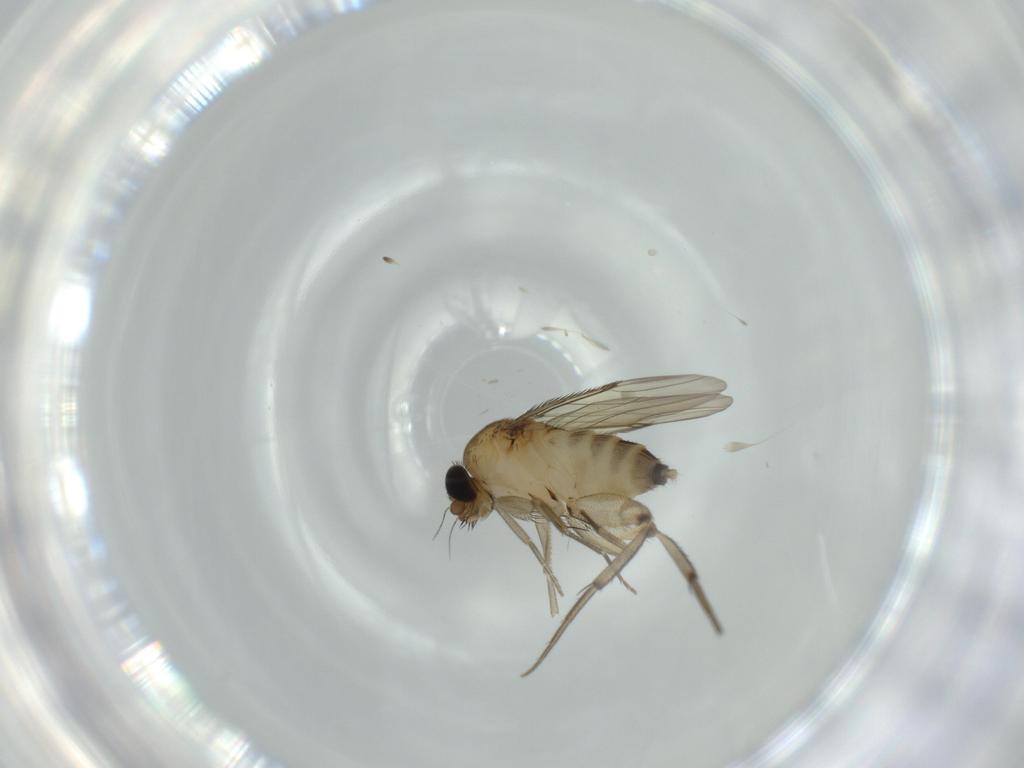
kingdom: Animalia
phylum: Arthropoda
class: Insecta
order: Diptera
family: Phoridae
